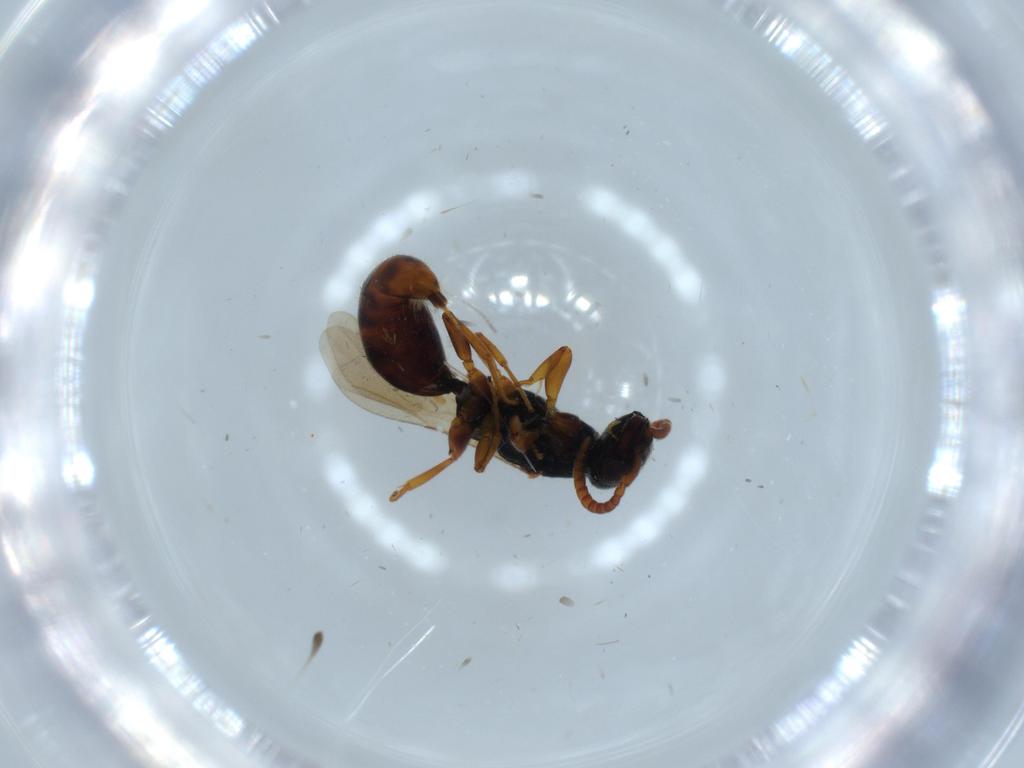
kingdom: Animalia
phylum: Arthropoda
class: Insecta
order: Hymenoptera
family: Bethylidae
